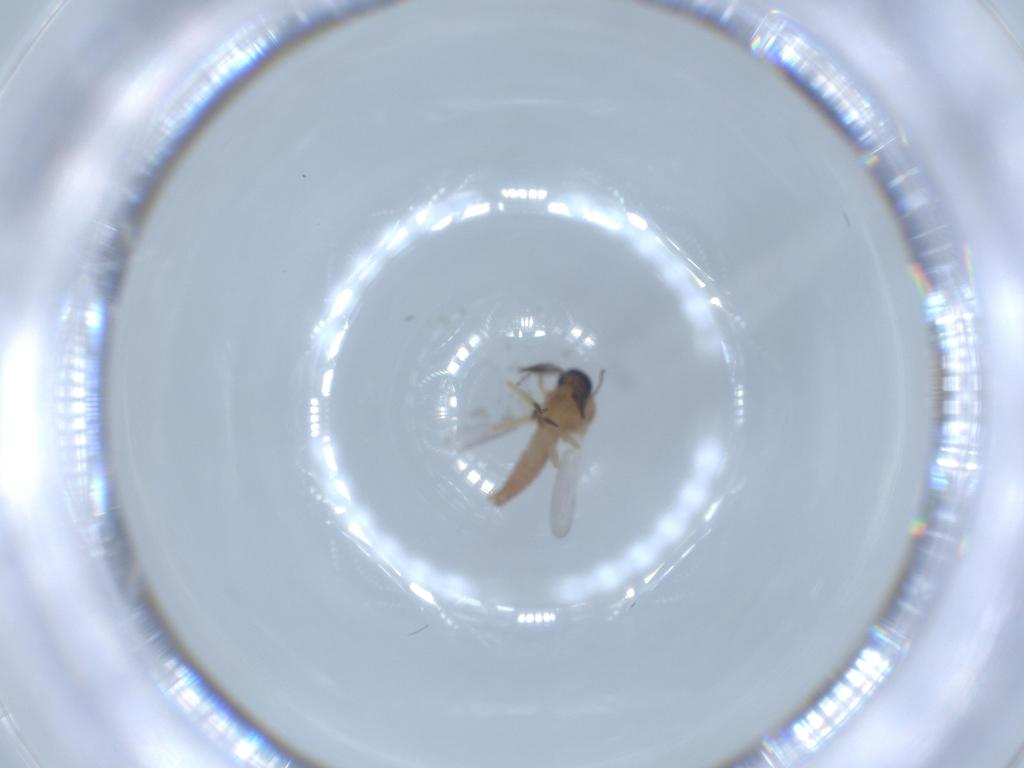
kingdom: Animalia
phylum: Arthropoda
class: Insecta
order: Diptera
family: Ceratopogonidae
